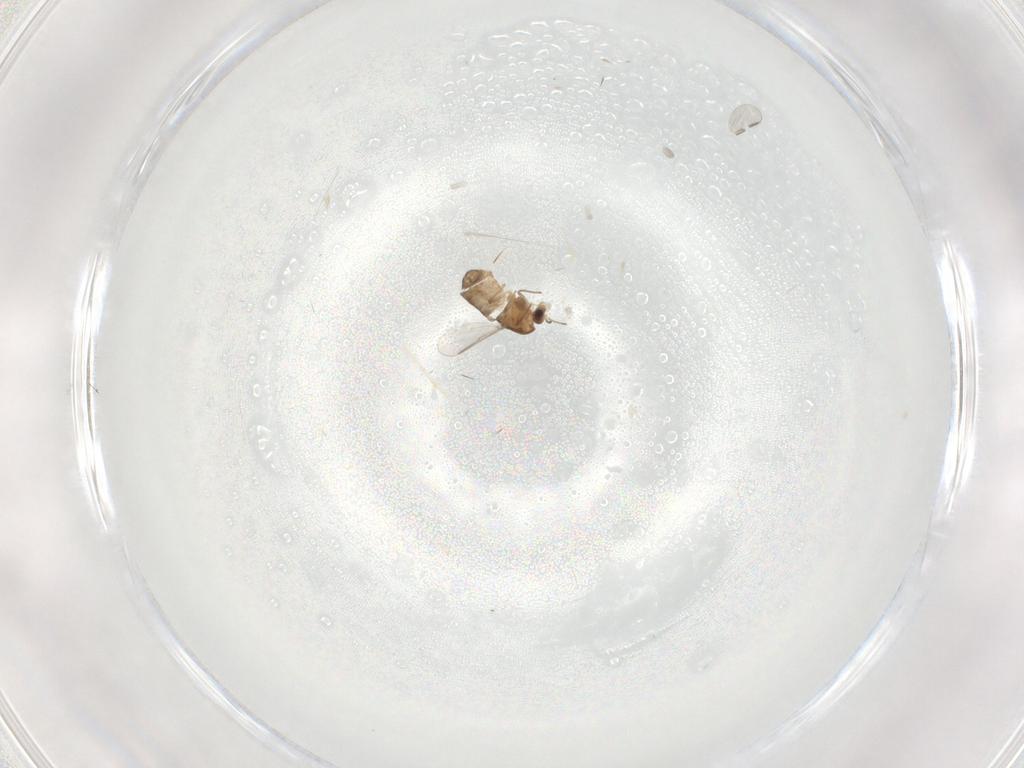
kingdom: Animalia
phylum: Arthropoda
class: Insecta
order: Diptera
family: Chironomidae
